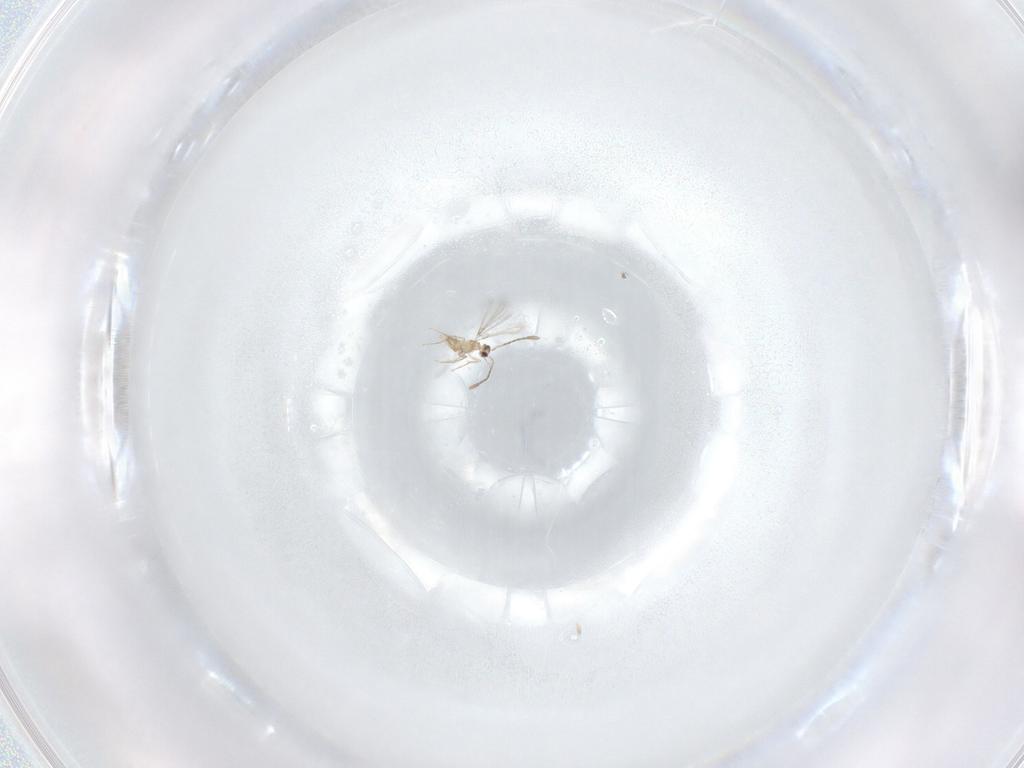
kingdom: Animalia
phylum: Arthropoda
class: Insecta
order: Hymenoptera
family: Mymaridae
